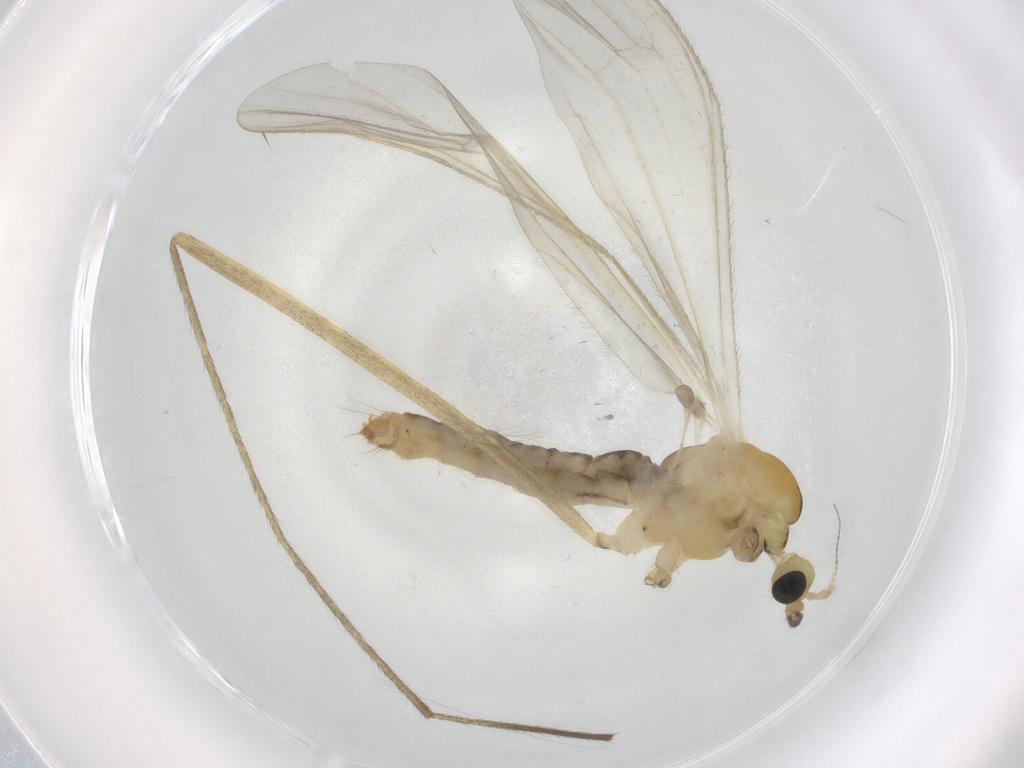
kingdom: Animalia
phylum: Arthropoda
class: Insecta
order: Diptera
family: Limoniidae
